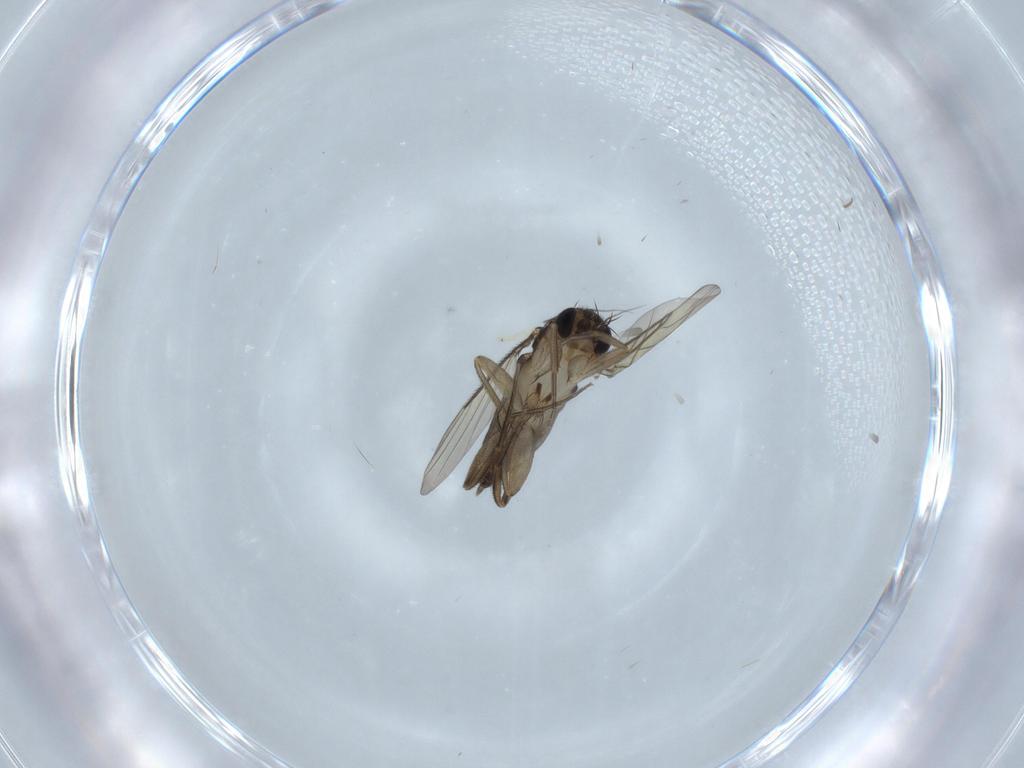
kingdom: Animalia
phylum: Arthropoda
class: Insecta
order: Diptera
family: Phoridae
